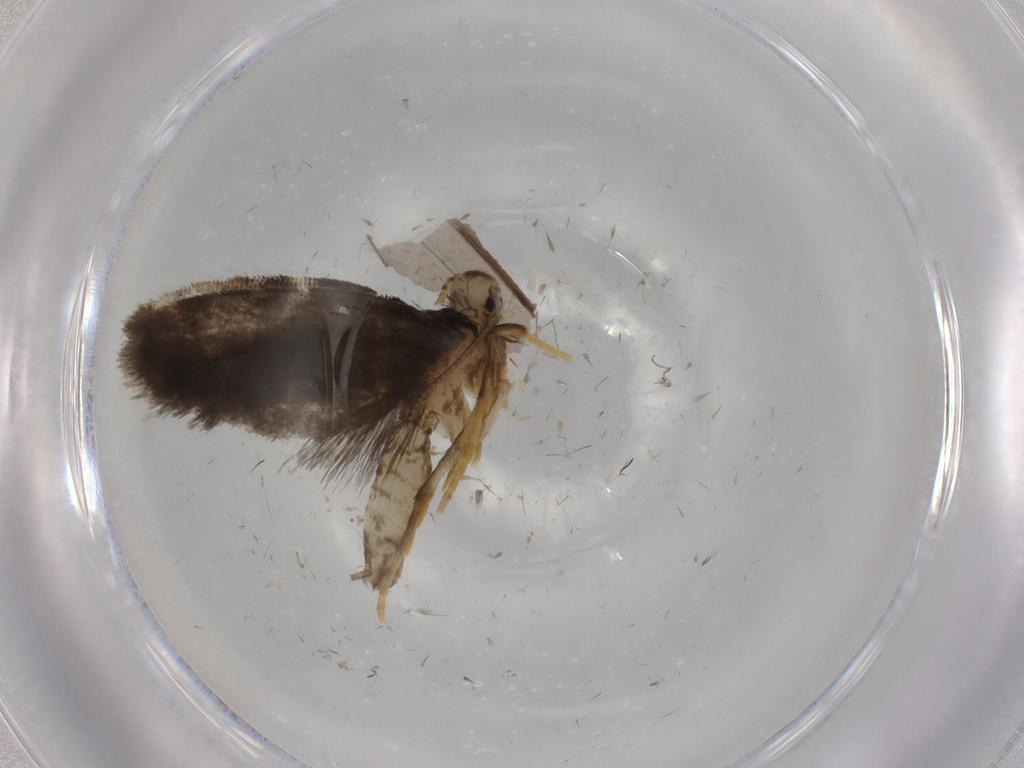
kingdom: Animalia
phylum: Arthropoda
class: Insecta
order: Lepidoptera
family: Psychidae
